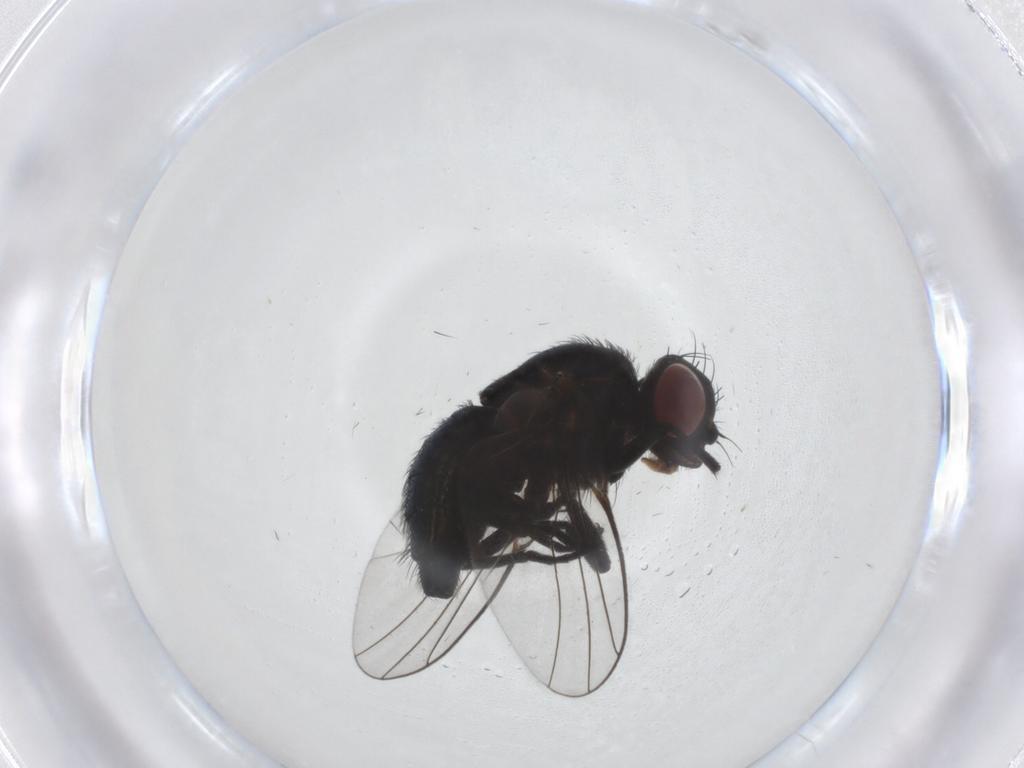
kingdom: Animalia
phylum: Arthropoda
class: Insecta
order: Diptera
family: Agromyzidae
